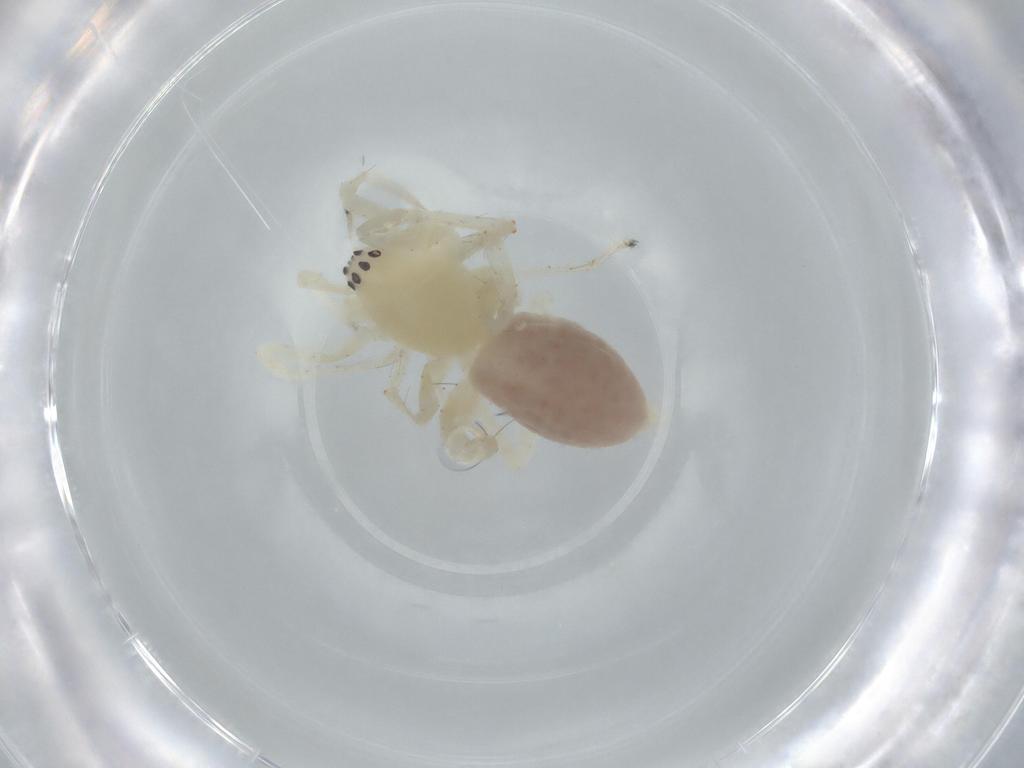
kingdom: Animalia
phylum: Arthropoda
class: Arachnida
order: Araneae
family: Anyphaenidae
